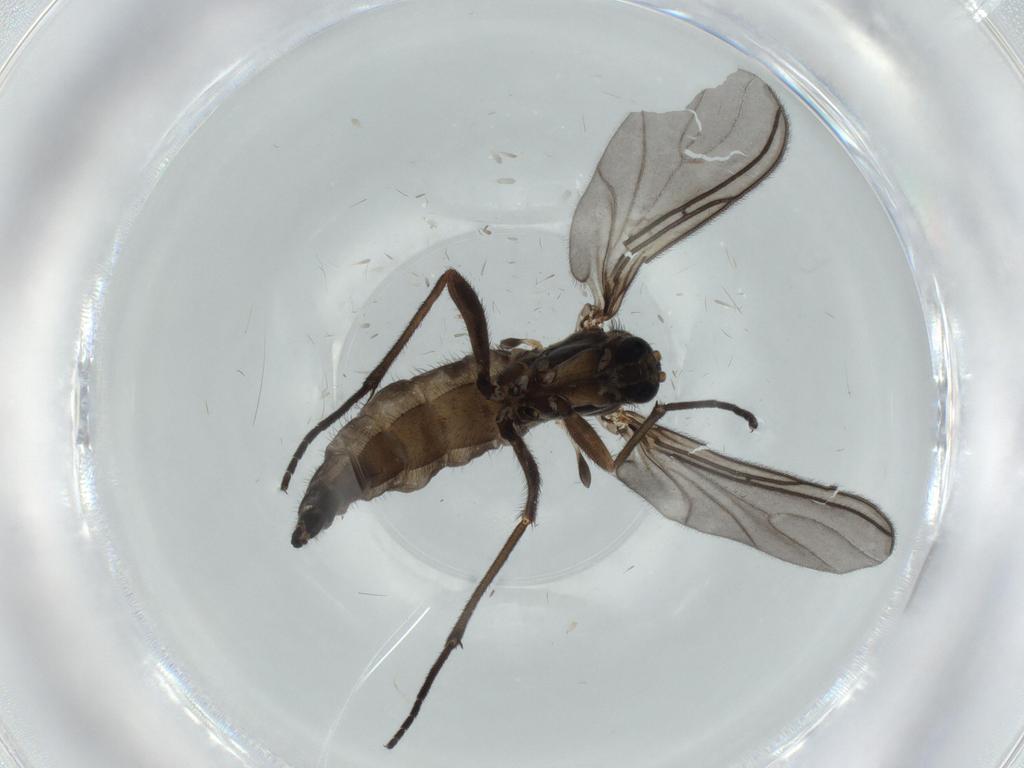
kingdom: Animalia
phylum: Arthropoda
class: Insecta
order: Diptera
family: Sciaridae
